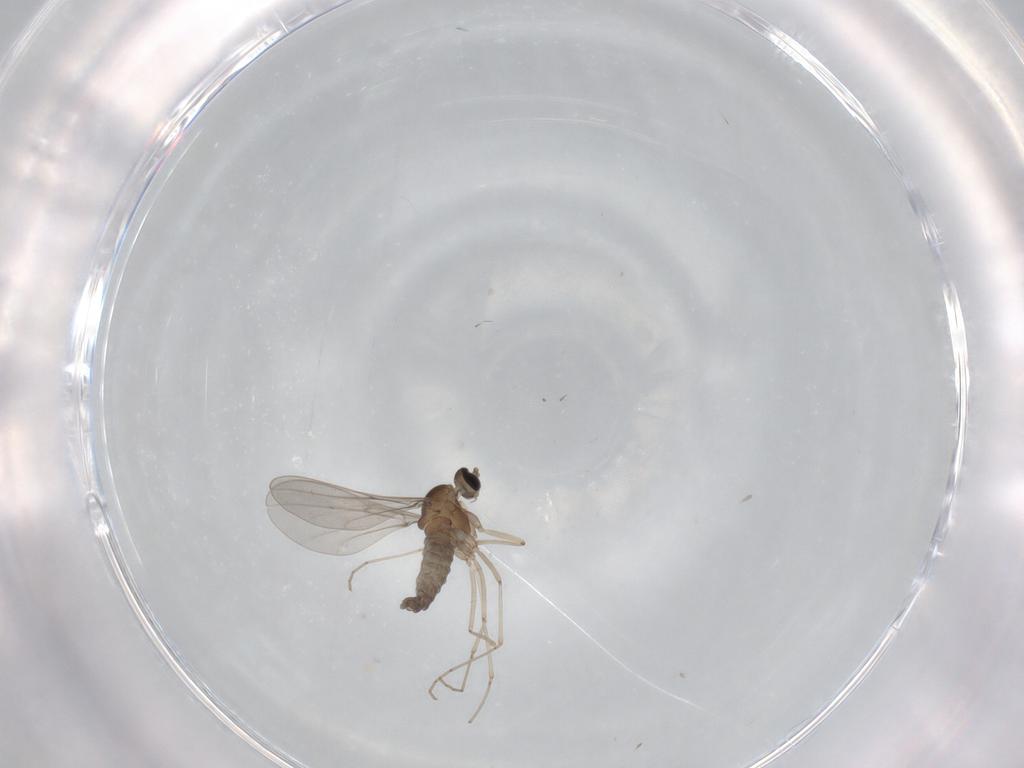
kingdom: Animalia
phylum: Arthropoda
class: Insecta
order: Diptera
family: Cecidomyiidae
